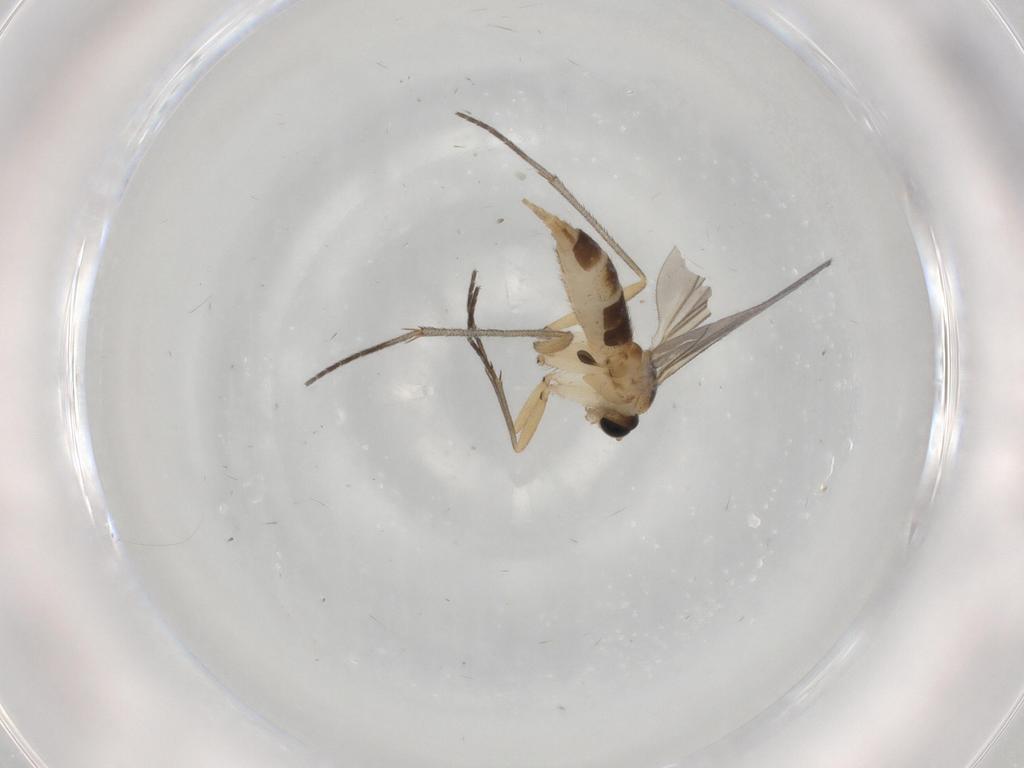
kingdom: Animalia
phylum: Arthropoda
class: Insecta
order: Diptera
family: Sciaridae
